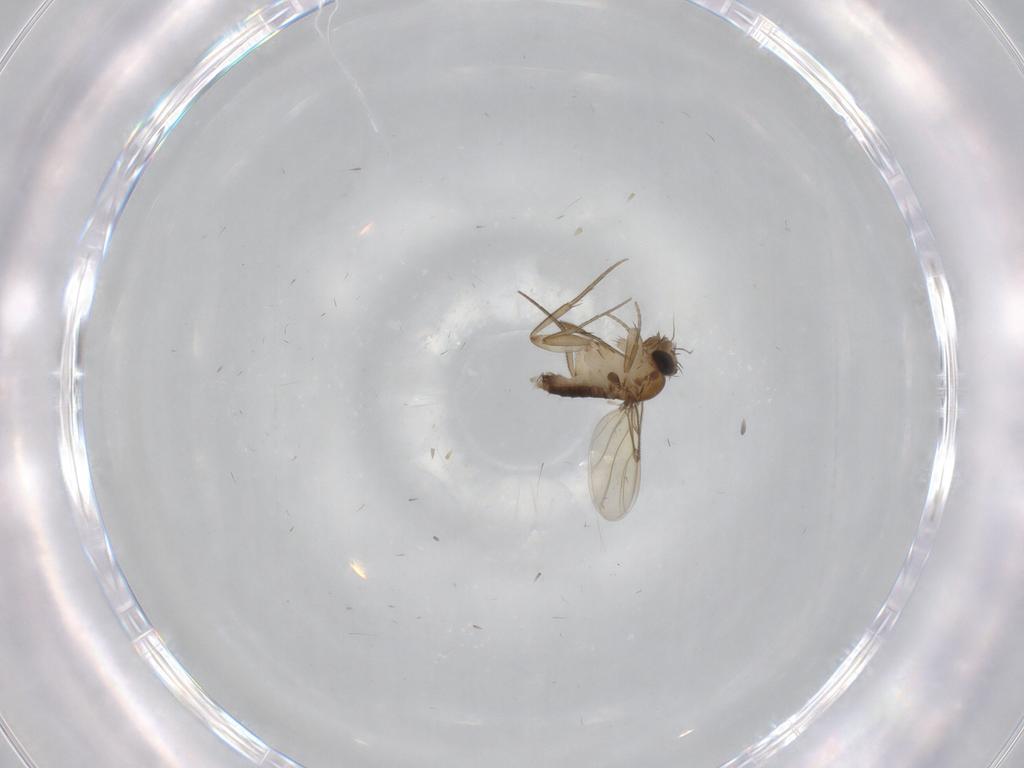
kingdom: Animalia
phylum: Arthropoda
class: Insecta
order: Diptera
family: Phoridae
